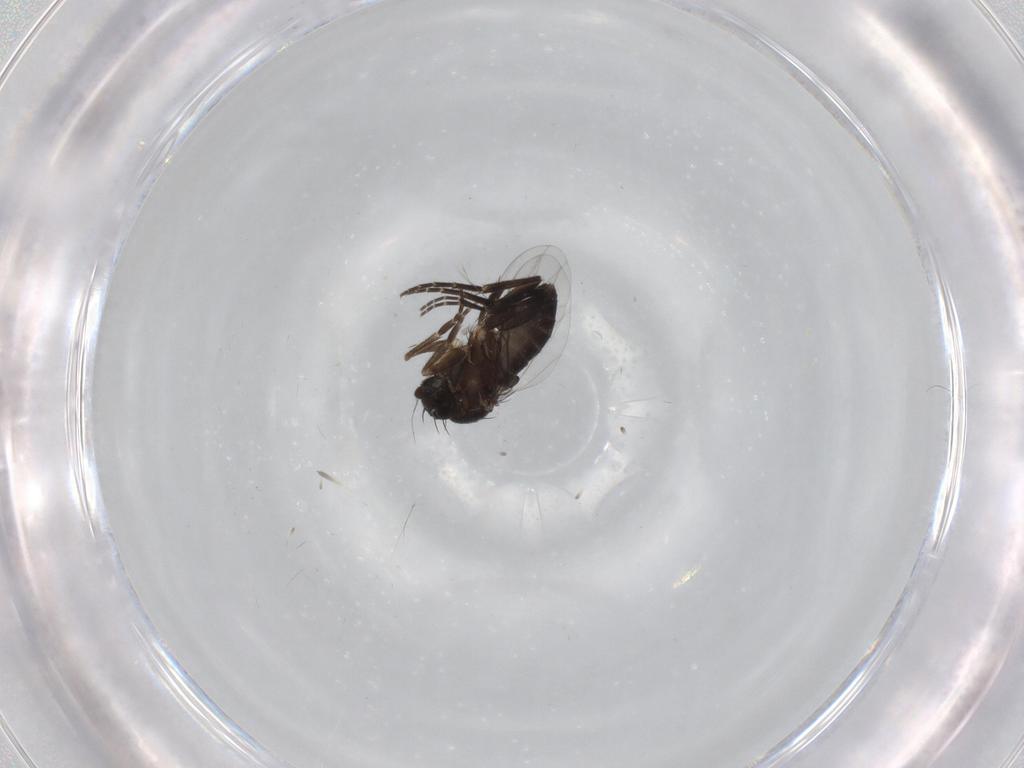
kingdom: Animalia
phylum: Arthropoda
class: Insecta
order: Diptera
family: Phoridae
